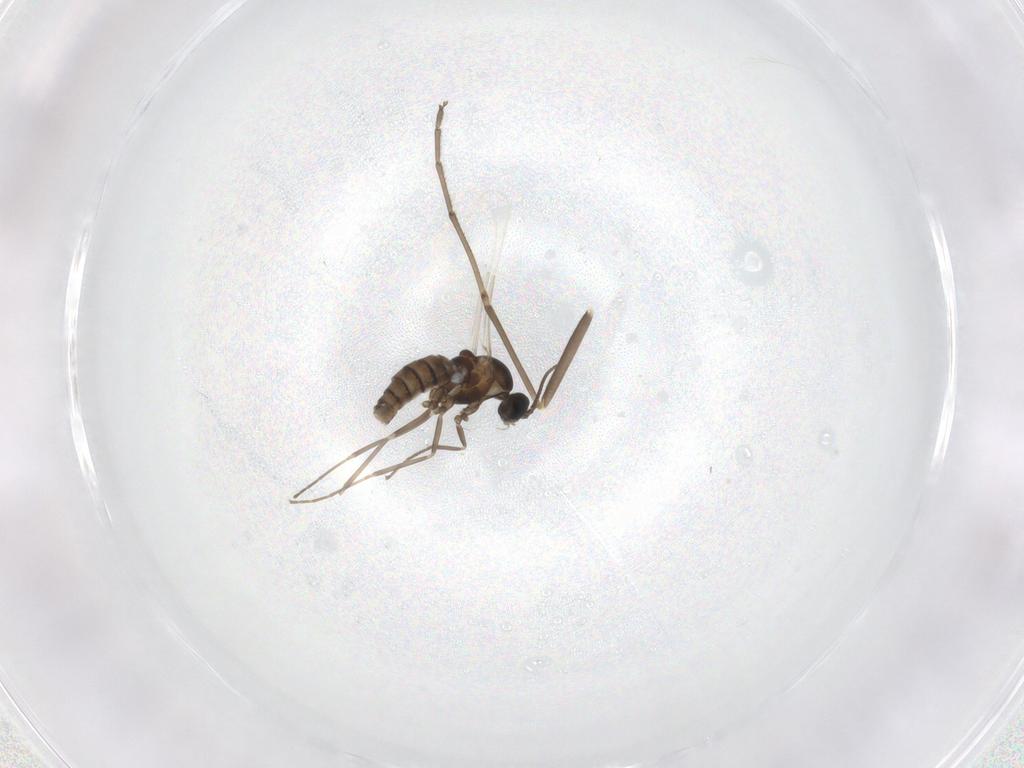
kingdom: Animalia
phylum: Arthropoda
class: Insecta
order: Diptera
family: Cecidomyiidae
